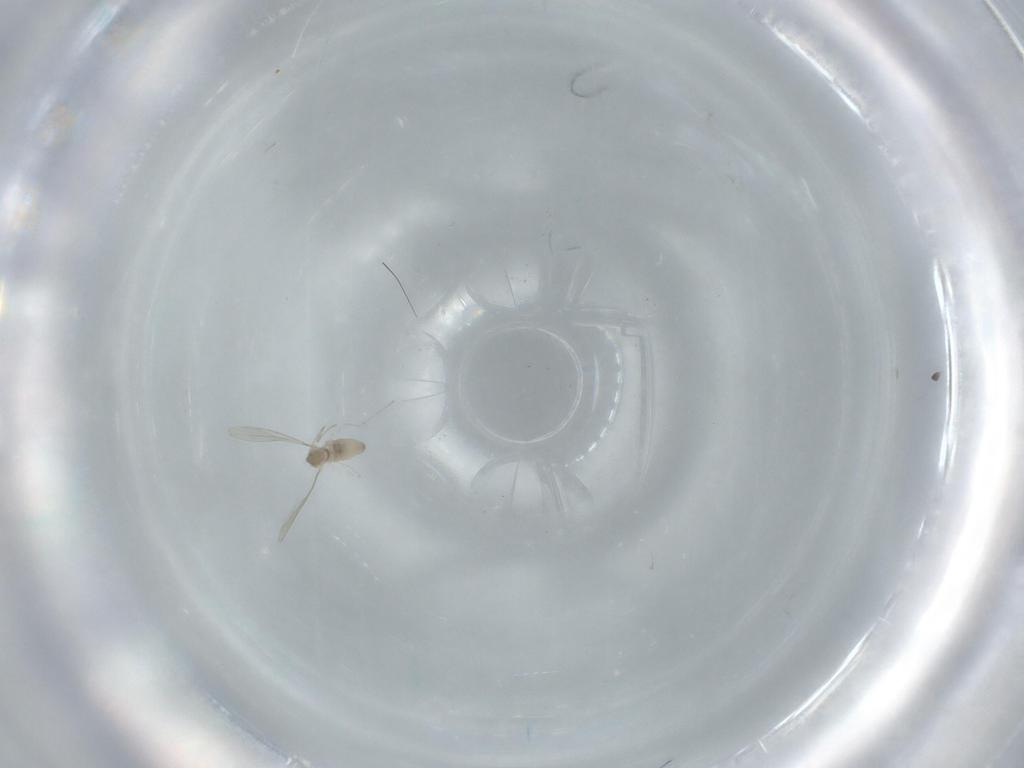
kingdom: Animalia
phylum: Arthropoda
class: Insecta
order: Diptera
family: Cecidomyiidae
